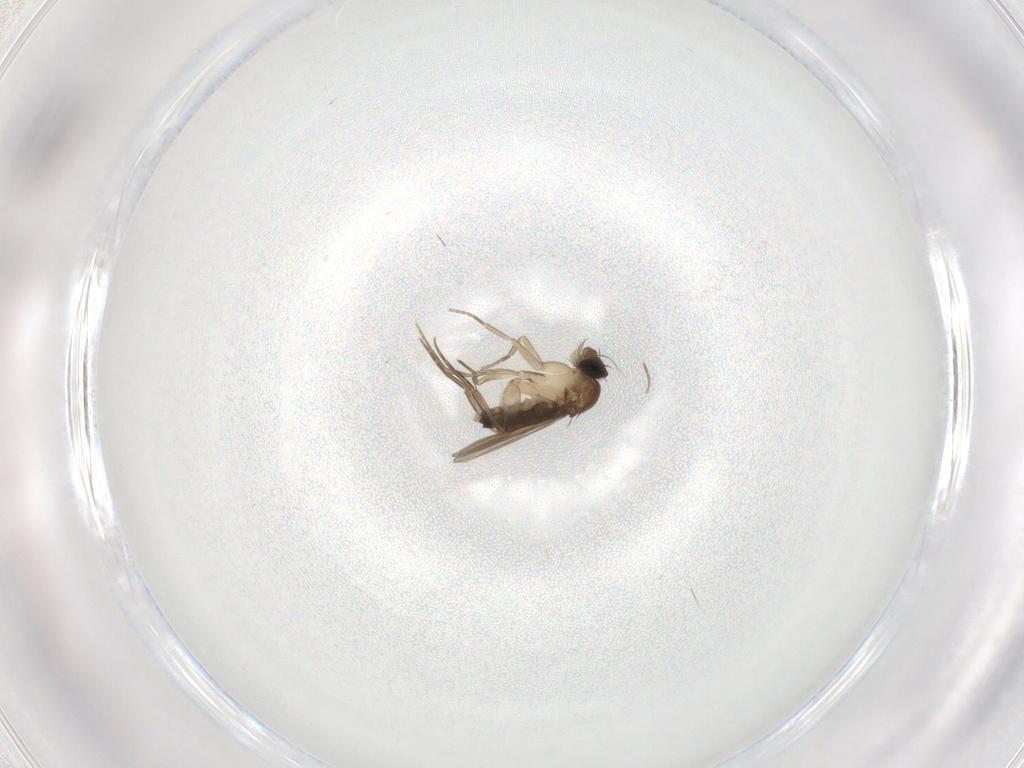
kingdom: Animalia
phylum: Arthropoda
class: Insecta
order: Diptera
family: Phoridae
